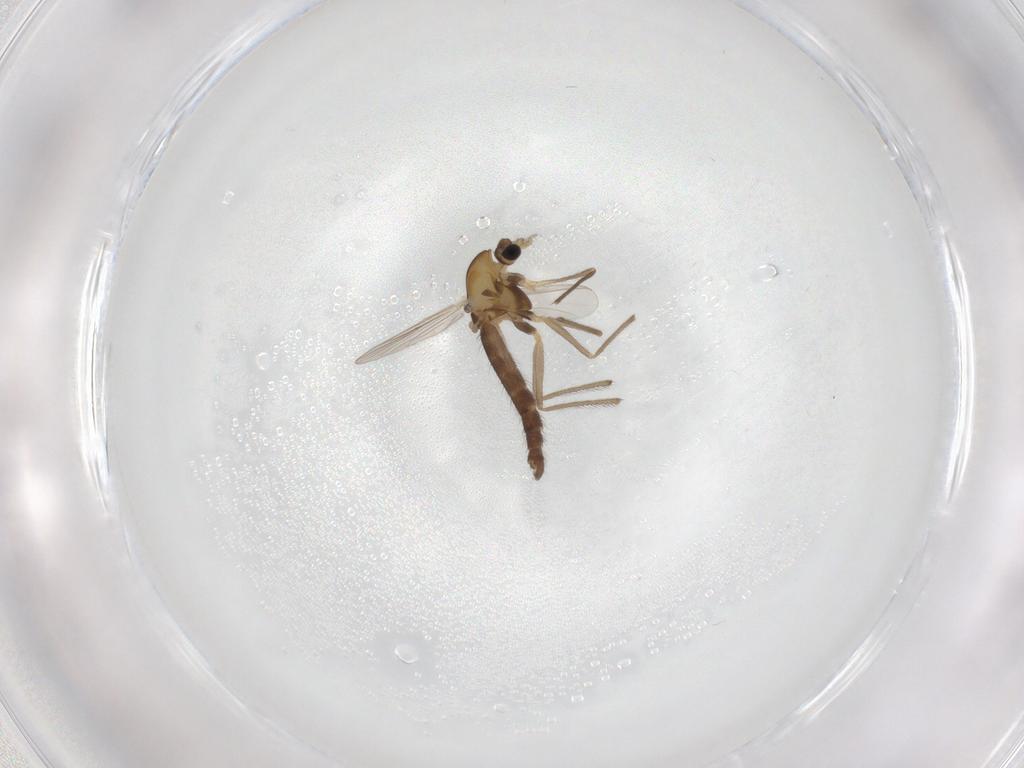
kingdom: Animalia
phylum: Arthropoda
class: Insecta
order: Diptera
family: Chironomidae
